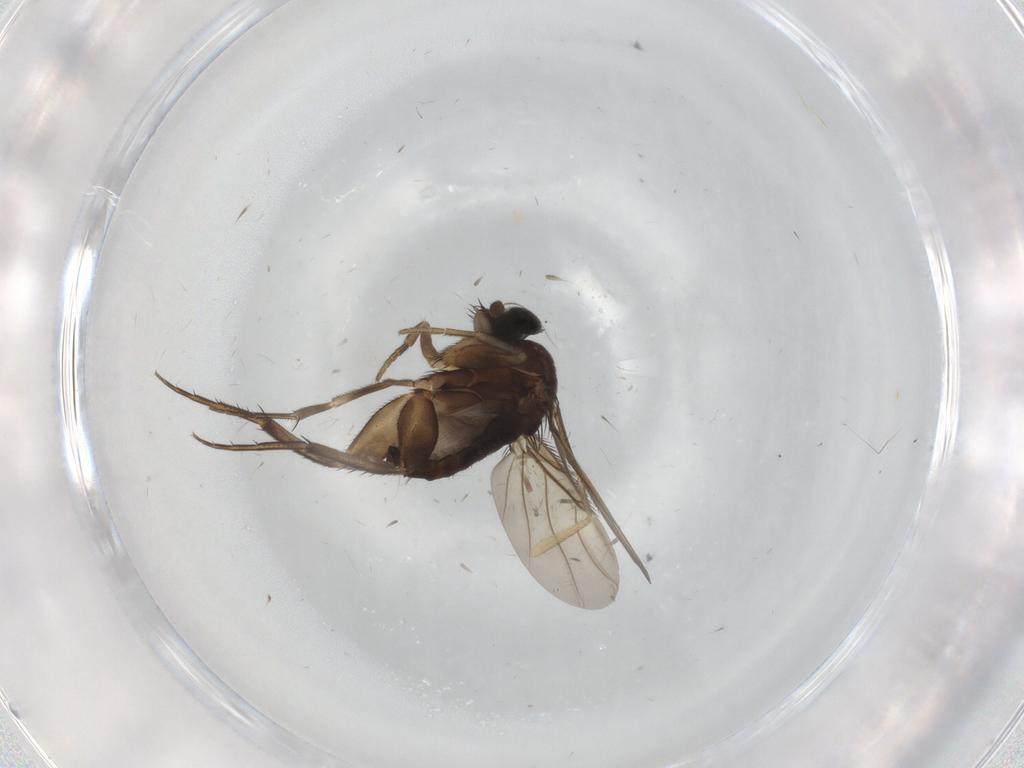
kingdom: Animalia
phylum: Arthropoda
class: Insecta
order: Diptera
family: Phoridae
